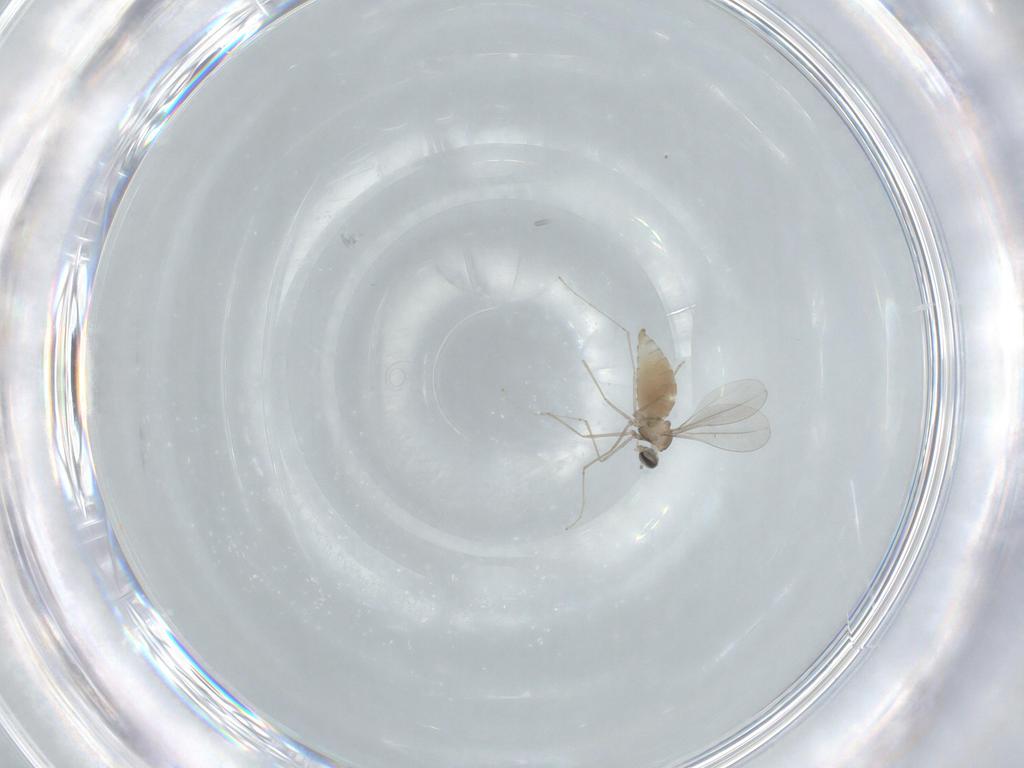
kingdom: Animalia
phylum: Arthropoda
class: Insecta
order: Diptera
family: Cecidomyiidae
